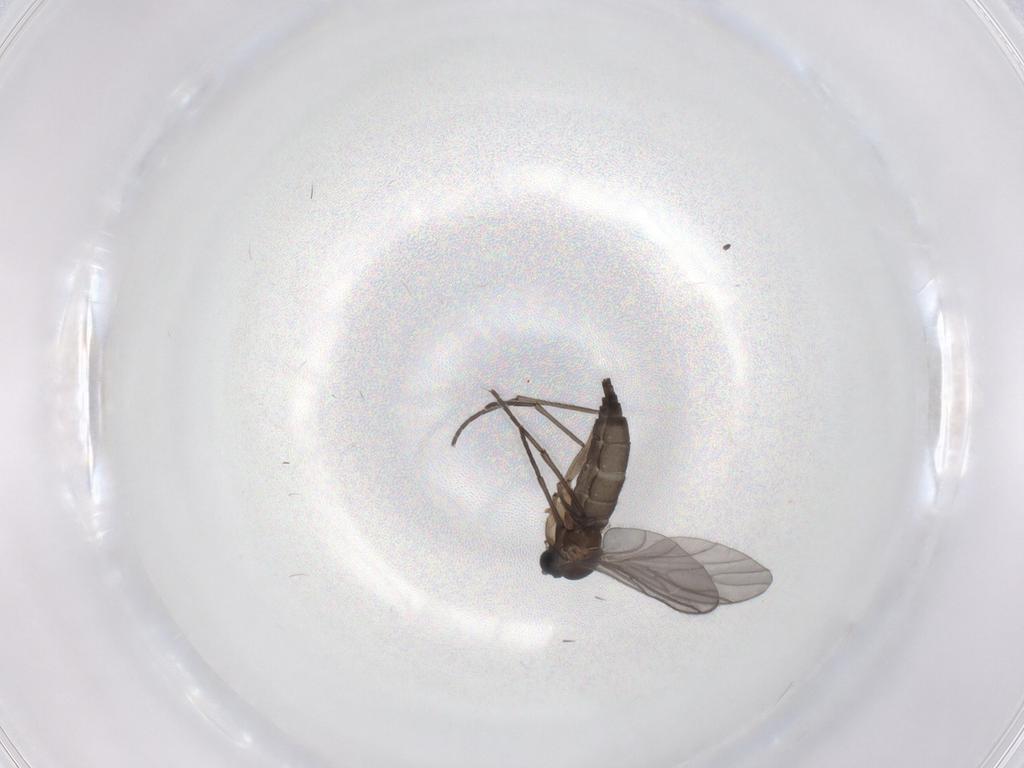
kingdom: Animalia
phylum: Arthropoda
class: Insecta
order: Diptera
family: Sciaridae
